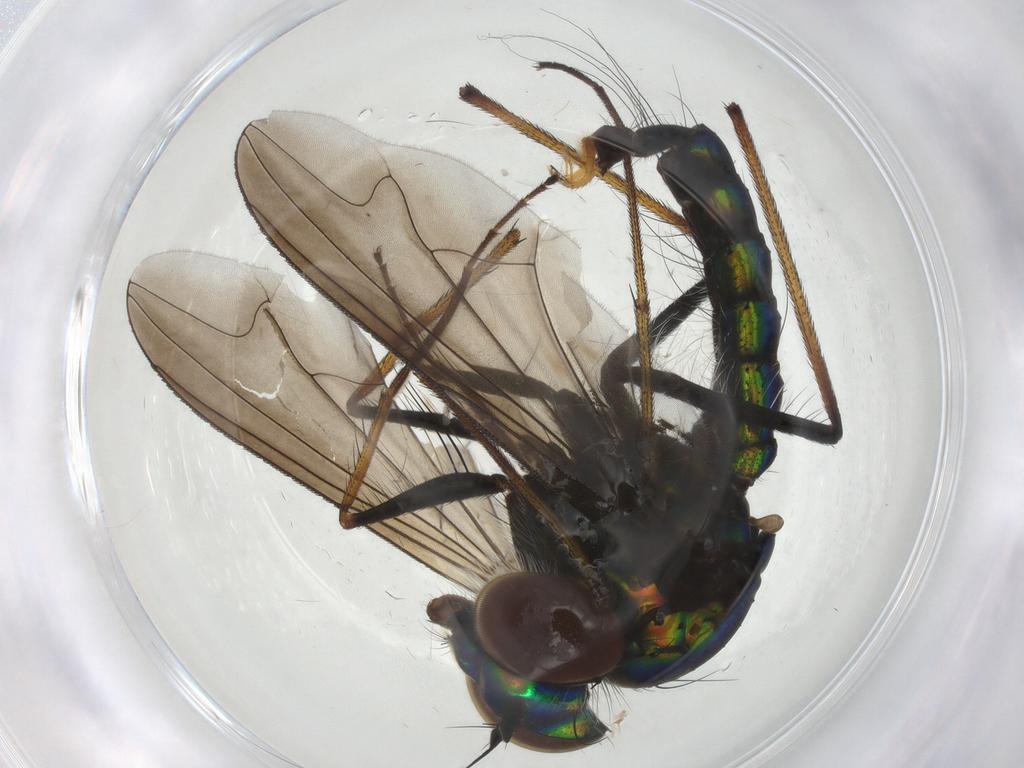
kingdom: Animalia
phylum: Arthropoda
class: Insecta
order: Diptera
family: Dolichopodidae
